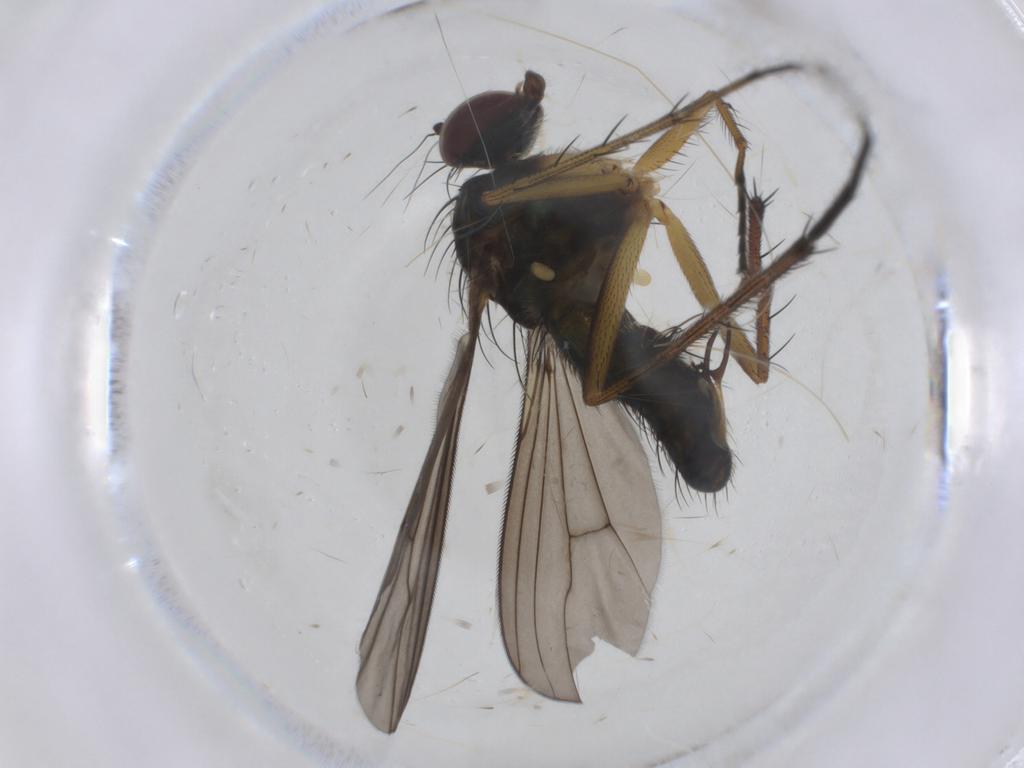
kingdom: Animalia
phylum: Arthropoda
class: Insecta
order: Diptera
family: Dolichopodidae
